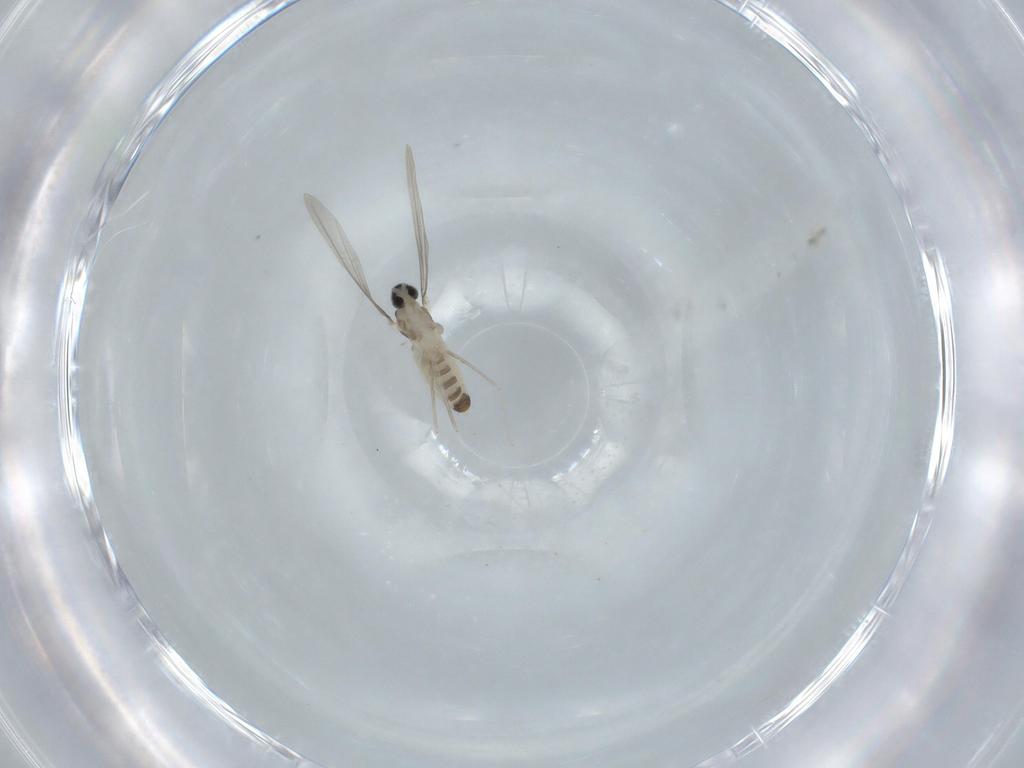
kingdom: Animalia
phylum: Arthropoda
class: Insecta
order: Diptera
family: Cecidomyiidae
